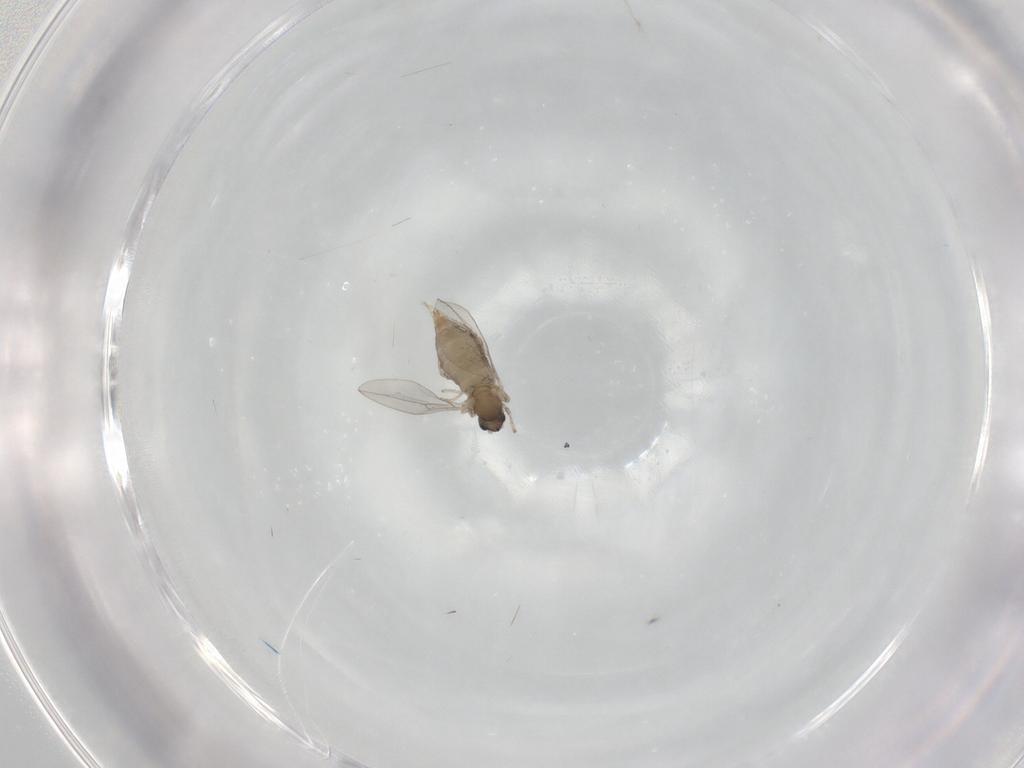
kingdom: Animalia
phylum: Arthropoda
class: Insecta
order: Diptera
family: Cecidomyiidae
